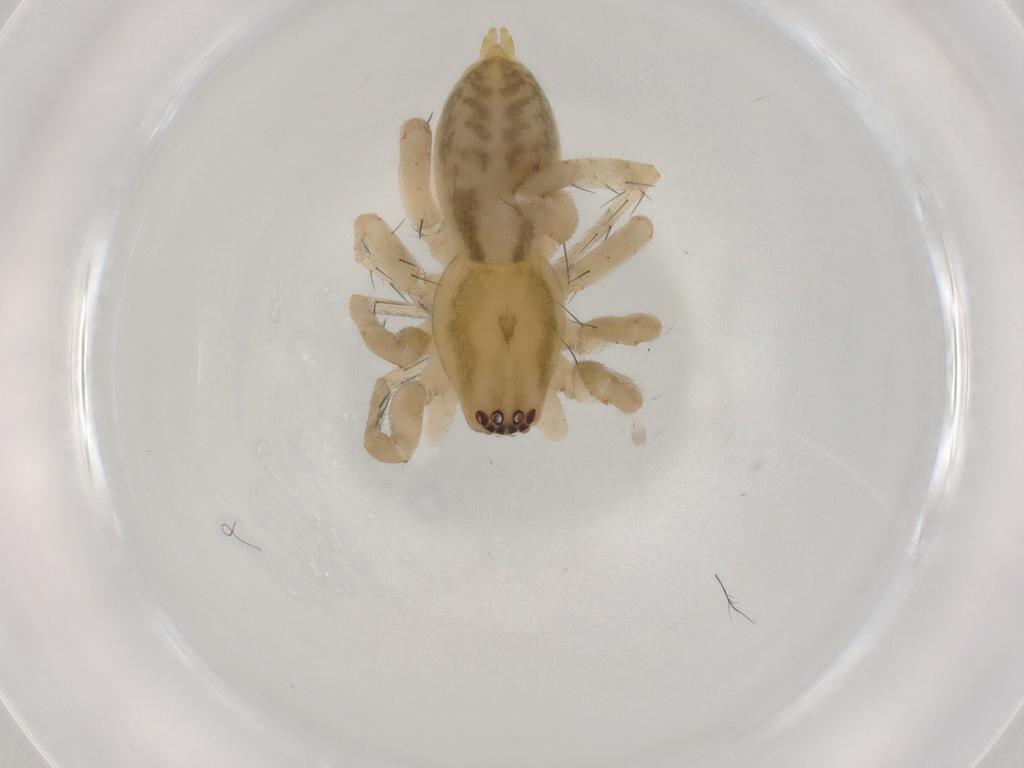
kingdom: Animalia
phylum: Arthropoda
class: Arachnida
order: Araneae
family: Anyphaenidae
